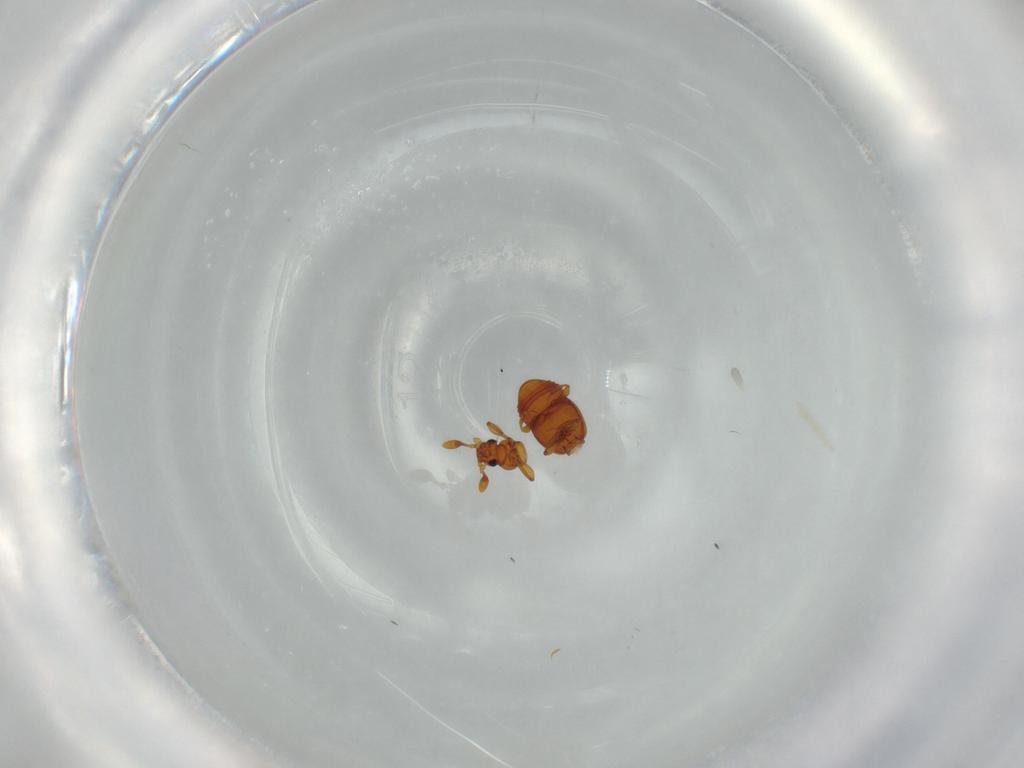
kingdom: Animalia
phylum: Arthropoda
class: Insecta
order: Coleoptera
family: Staphylinidae
